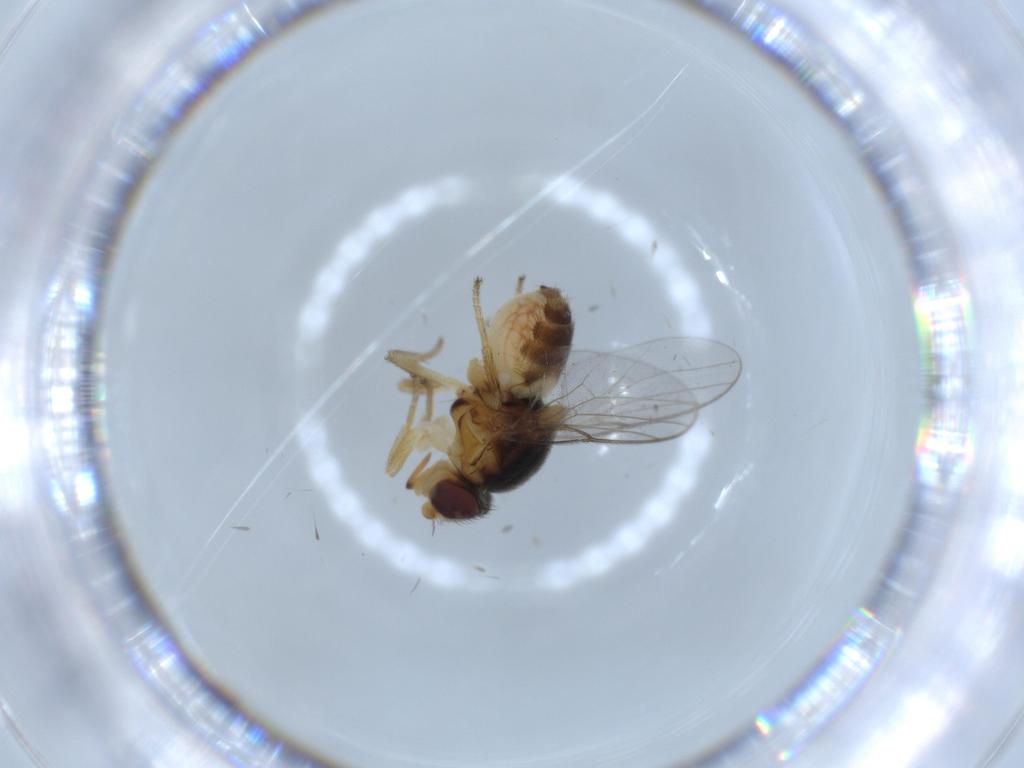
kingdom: Animalia
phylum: Arthropoda
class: Insecta
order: Diptera
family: Chloropidae
